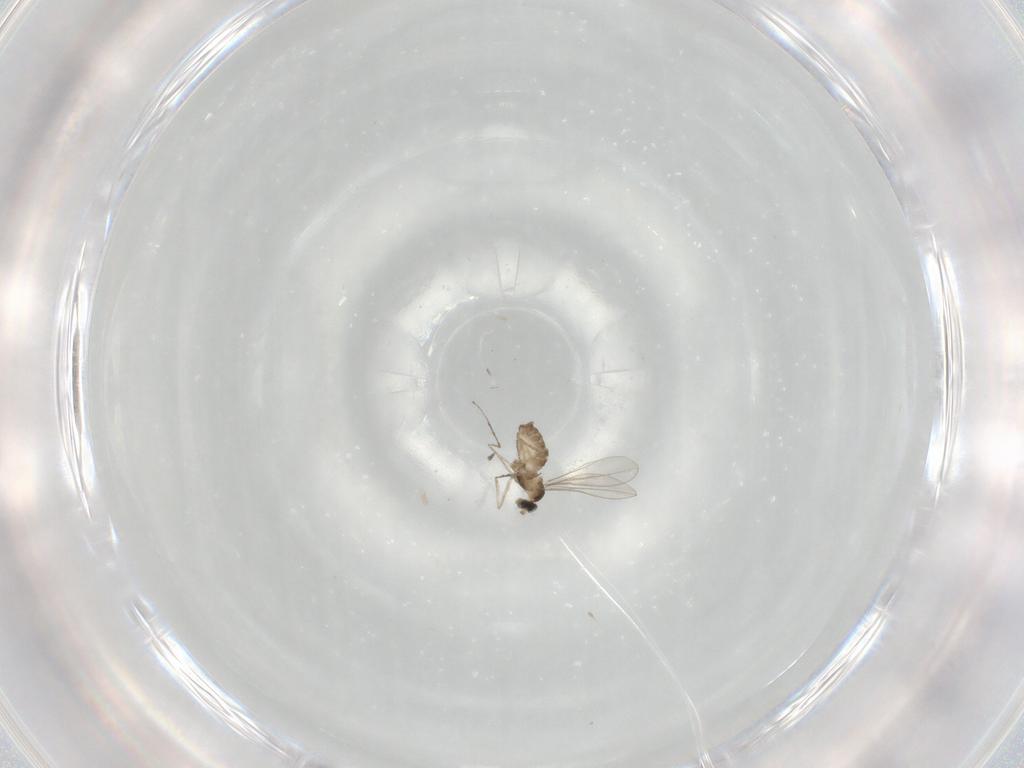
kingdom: Animalia
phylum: Arthropoda
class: Insecta
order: Diptera
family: Cecidomyiidae
